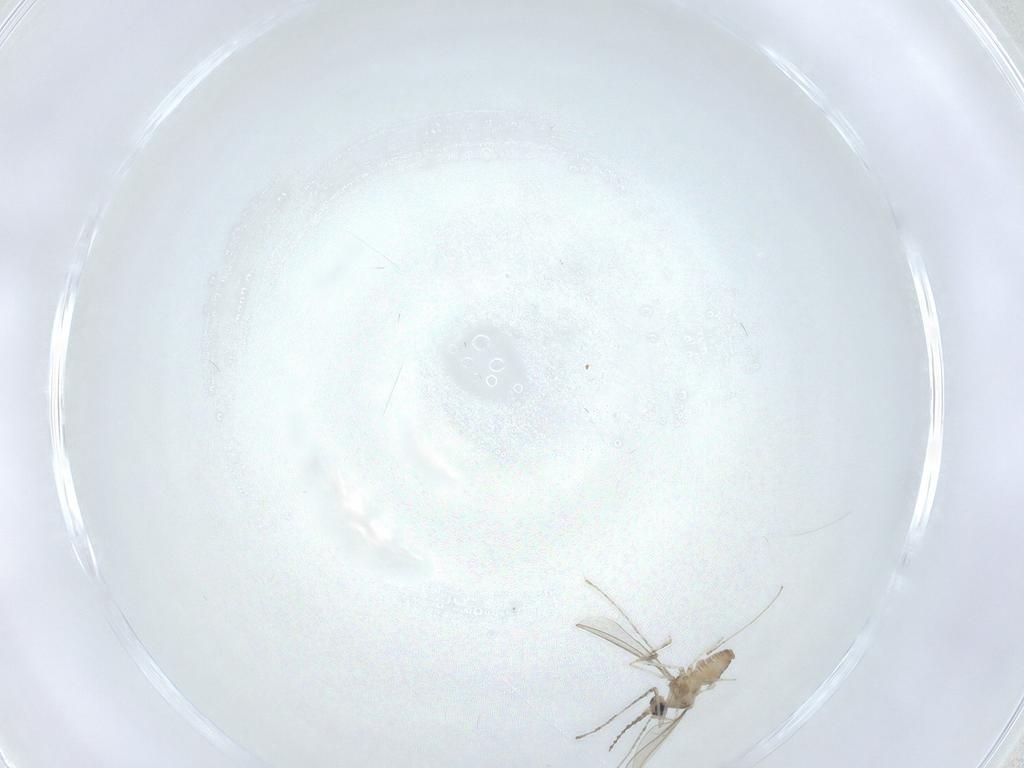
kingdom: Animalia
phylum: Arthropoda
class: Insecta
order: Diptera
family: Cecidomyiidae
